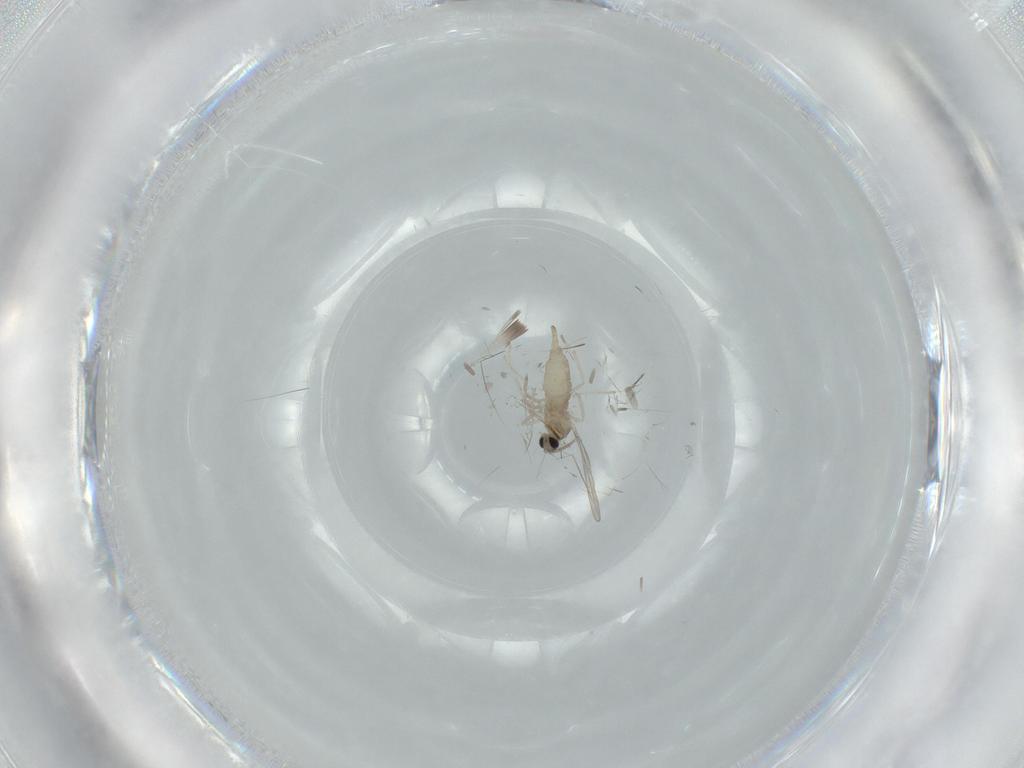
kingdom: Animalia
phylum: Arthropoda
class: Insecta
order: Diptera
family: Cecidomyiidae
